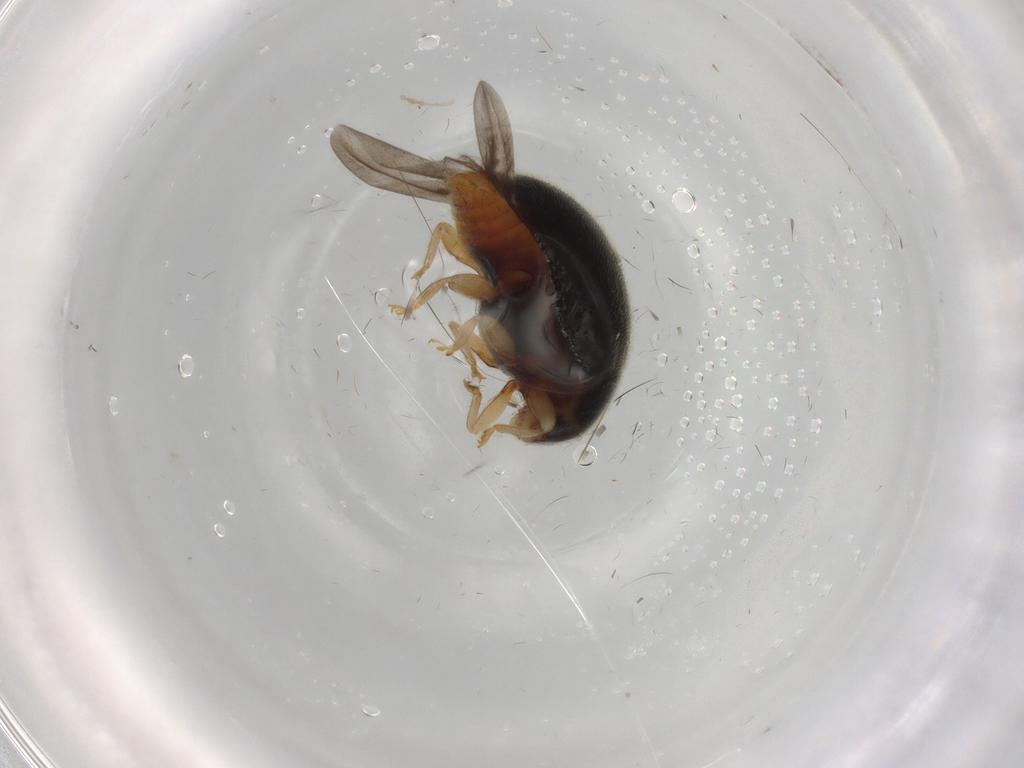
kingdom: Animalia
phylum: Arthropoda
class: Insecta
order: Coleoptera
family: Coccinellidae
